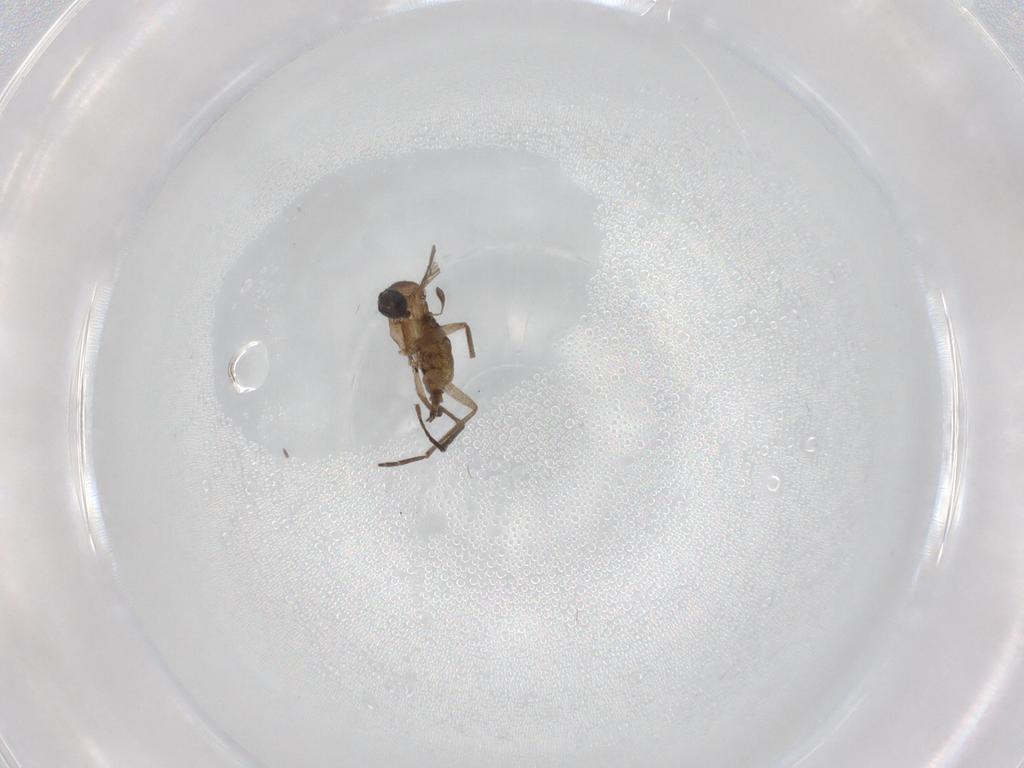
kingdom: Animalia
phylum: Arthropoda
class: Insecta
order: Diptera
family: Sciaridae
